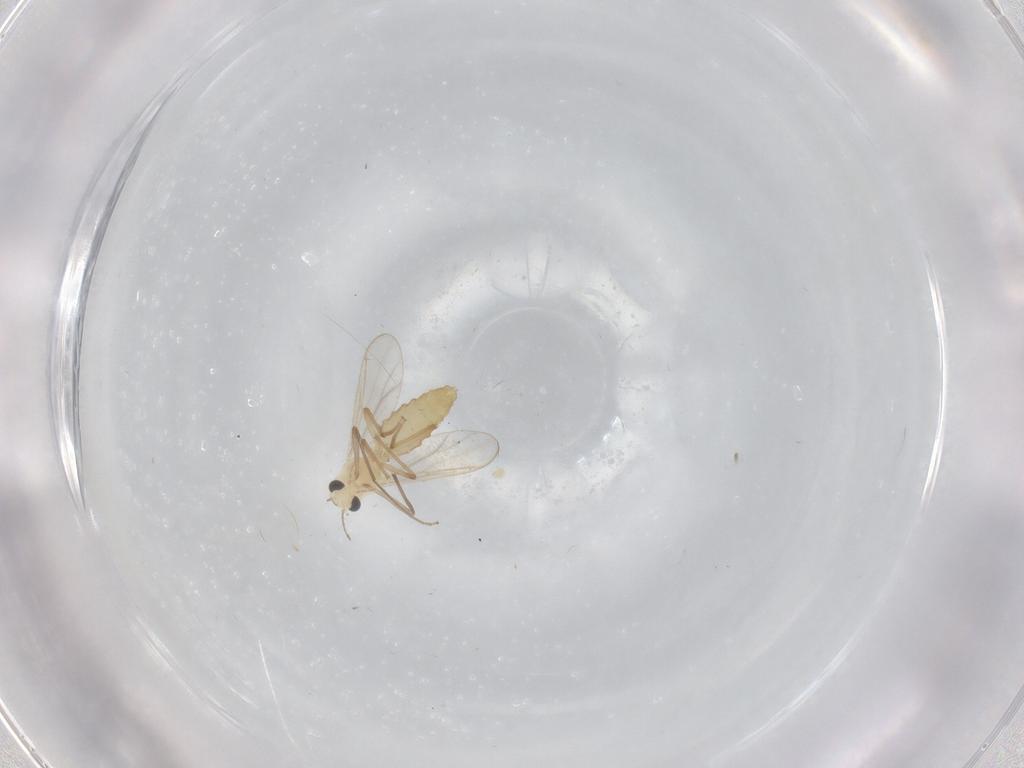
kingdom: Animalia
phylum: Arthropoda
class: Insecta
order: Diptera
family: Chironomidae
